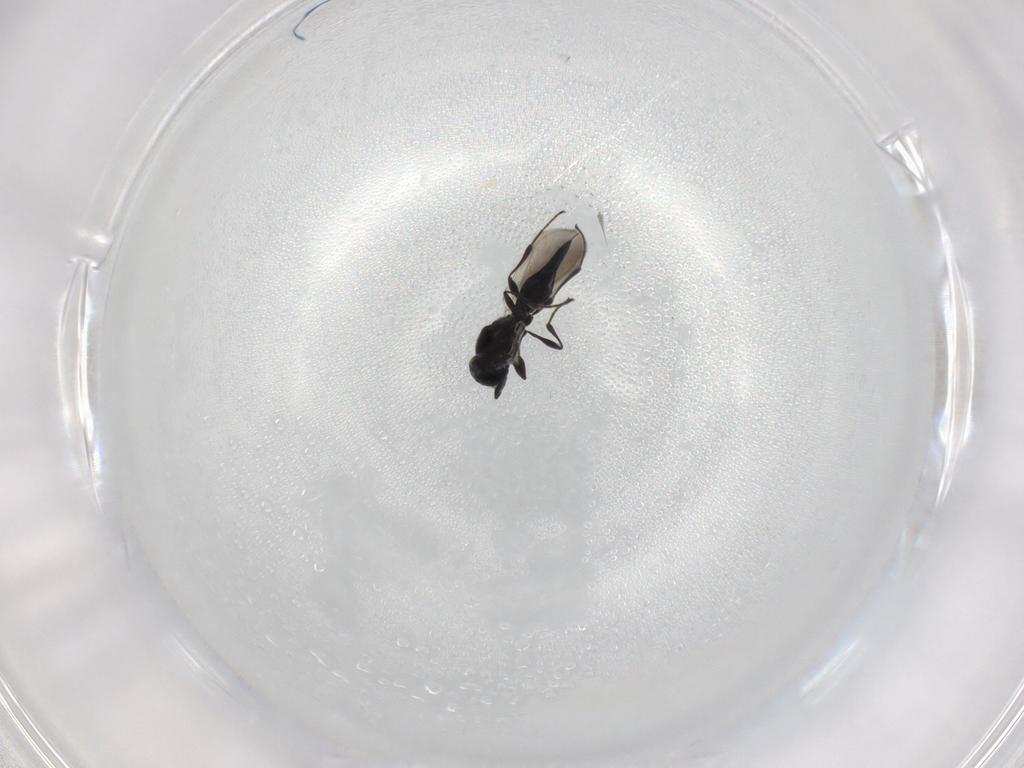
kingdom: Animalia
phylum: Arthropoda
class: Insecta
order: Diptera
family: Mythicomyiidae
